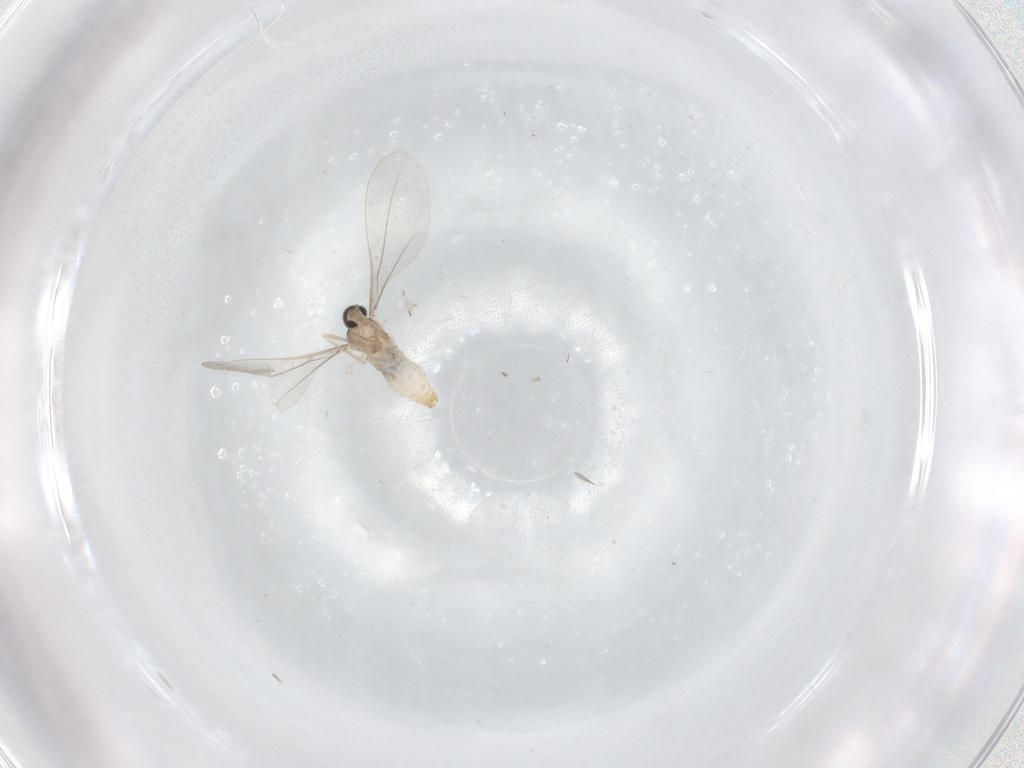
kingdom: Animalia
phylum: Arthropoda
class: Insecta
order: Diptera
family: Cecidomyiidae
